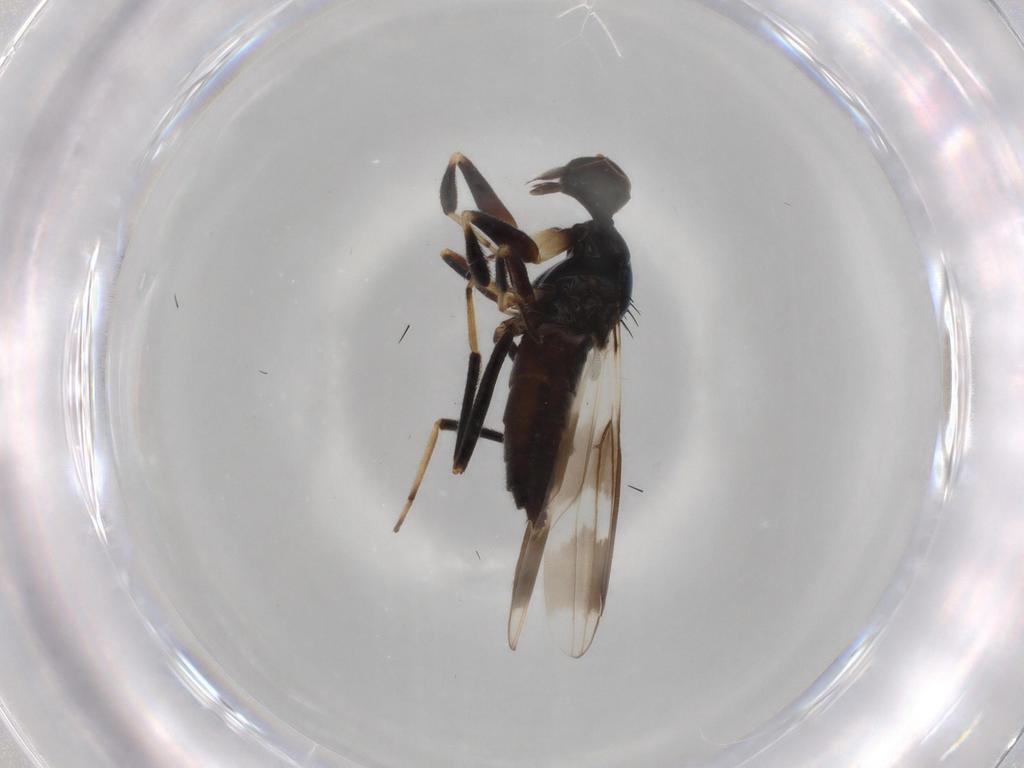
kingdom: Animalia
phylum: Arthropoda
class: Insecta
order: Diptera
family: Hybotidae
